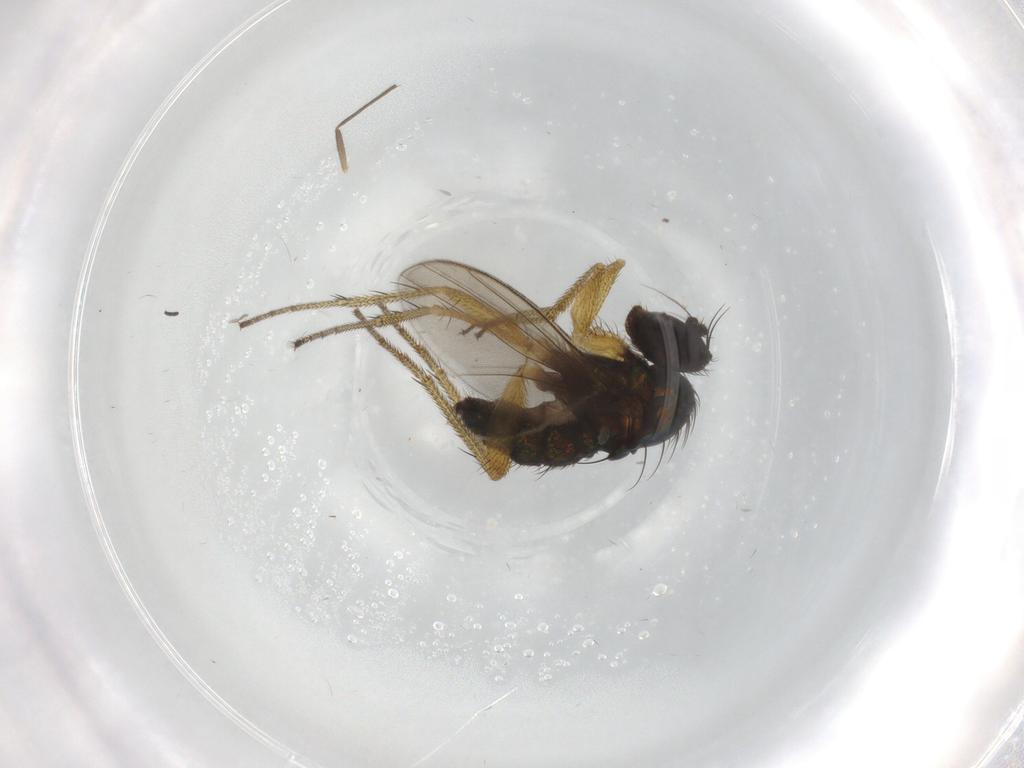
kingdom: Animalia
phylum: Arthropoda
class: Insecta
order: Diptera
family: Dolichopodidae
